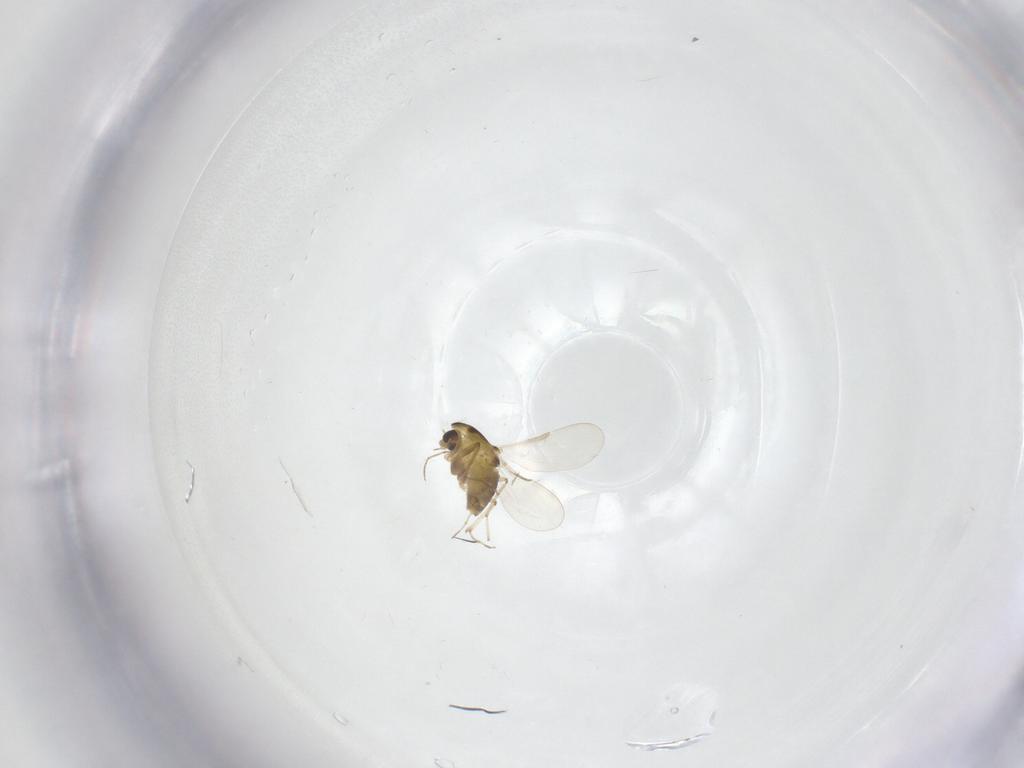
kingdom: Animalia
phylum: Arthropoda
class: Insecta
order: Diptera
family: Chironomidae
